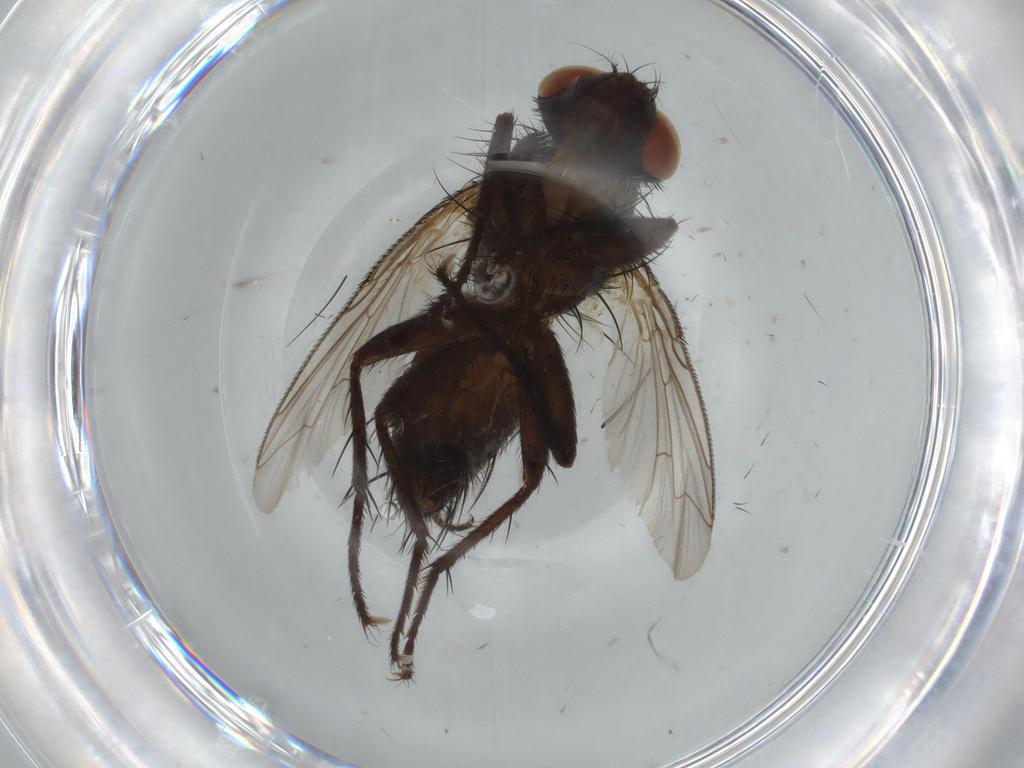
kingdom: Animalia
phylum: Arthropoda
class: Insecta
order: Diptera
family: Sarcophagidae
